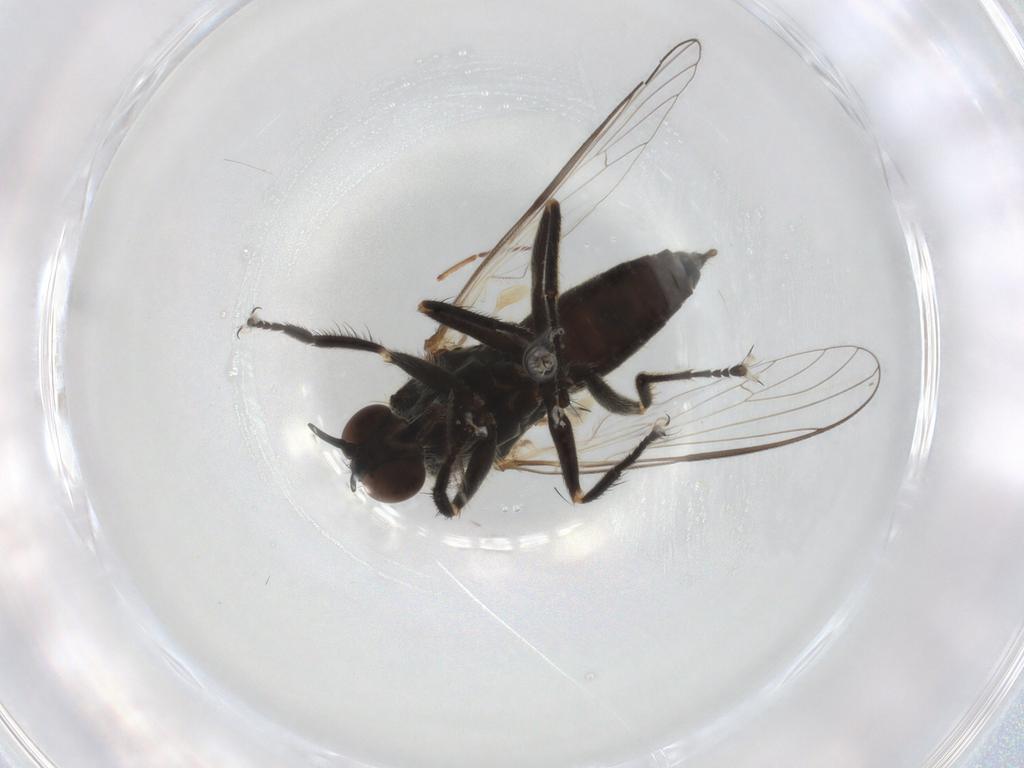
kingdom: Animalia
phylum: Arthropoda
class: Insecta
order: Diptera
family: Empididae
